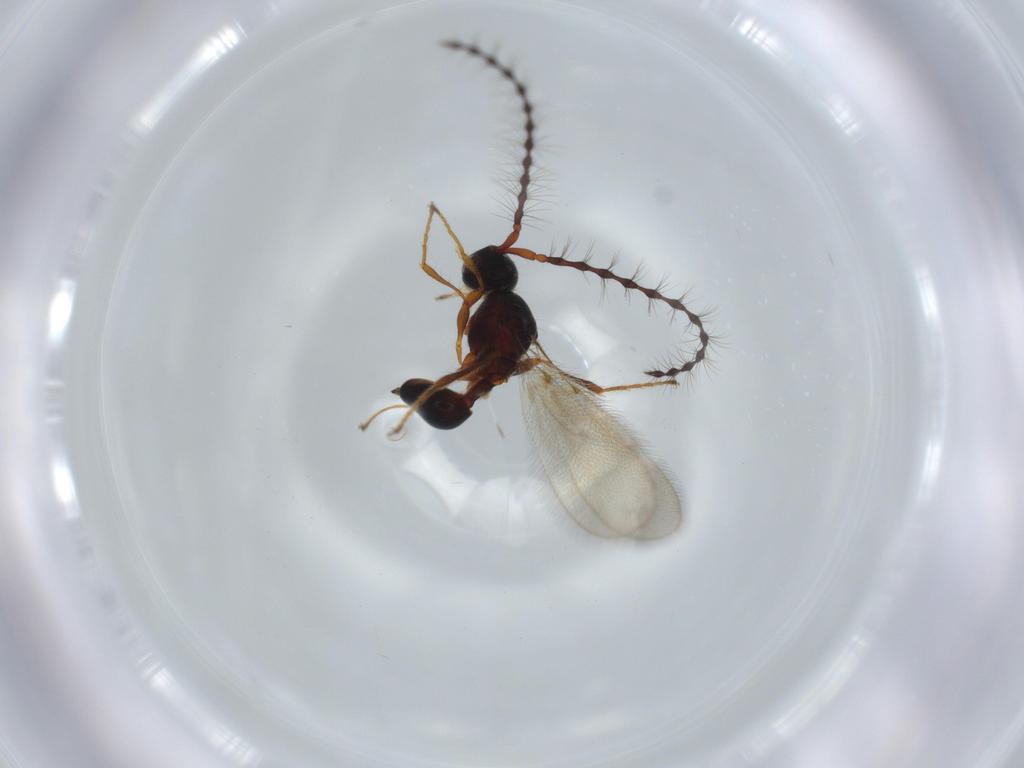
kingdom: Animalia
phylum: Arthropoda
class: Insecta
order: Hymenoptera
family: Diapriidae
